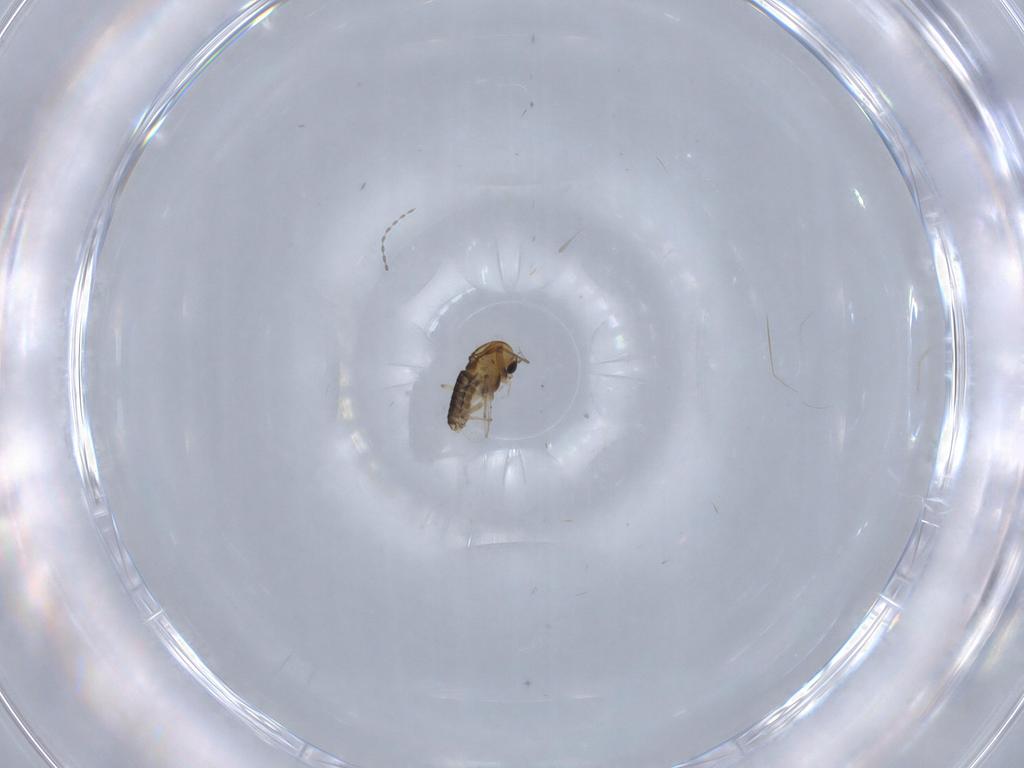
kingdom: Animalia
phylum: Arthropoda
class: Insecta
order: Diptera
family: Chironomidae
